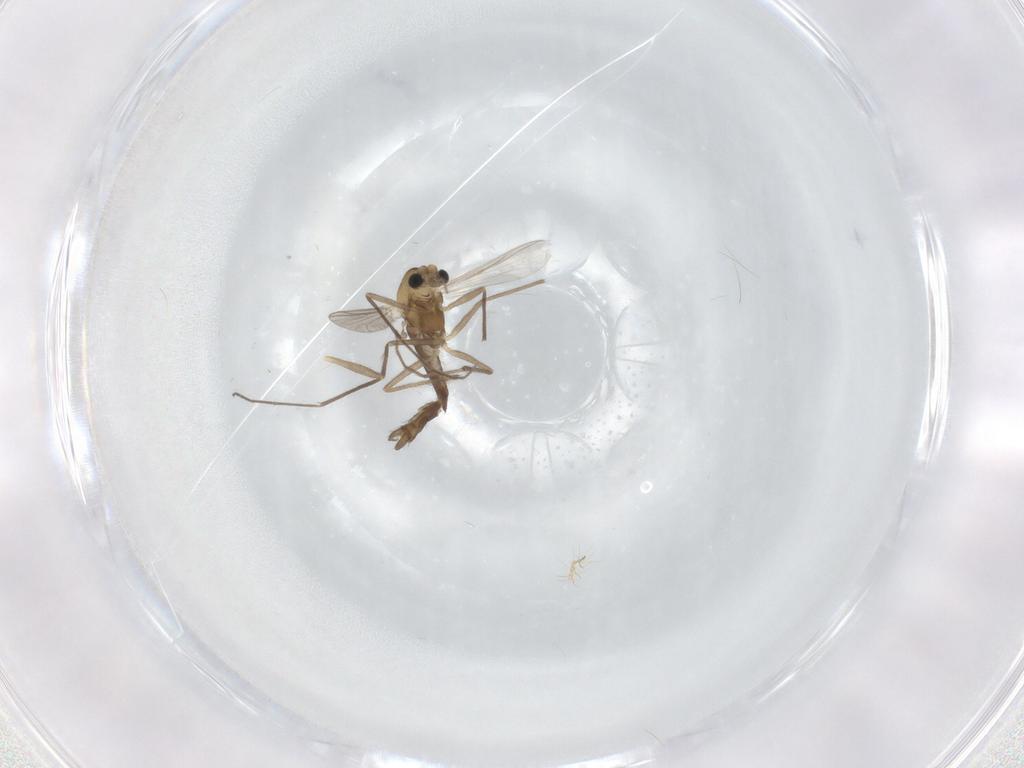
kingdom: Animalia
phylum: Arthropoda
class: Insecta
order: Diptera
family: Chironomidae
